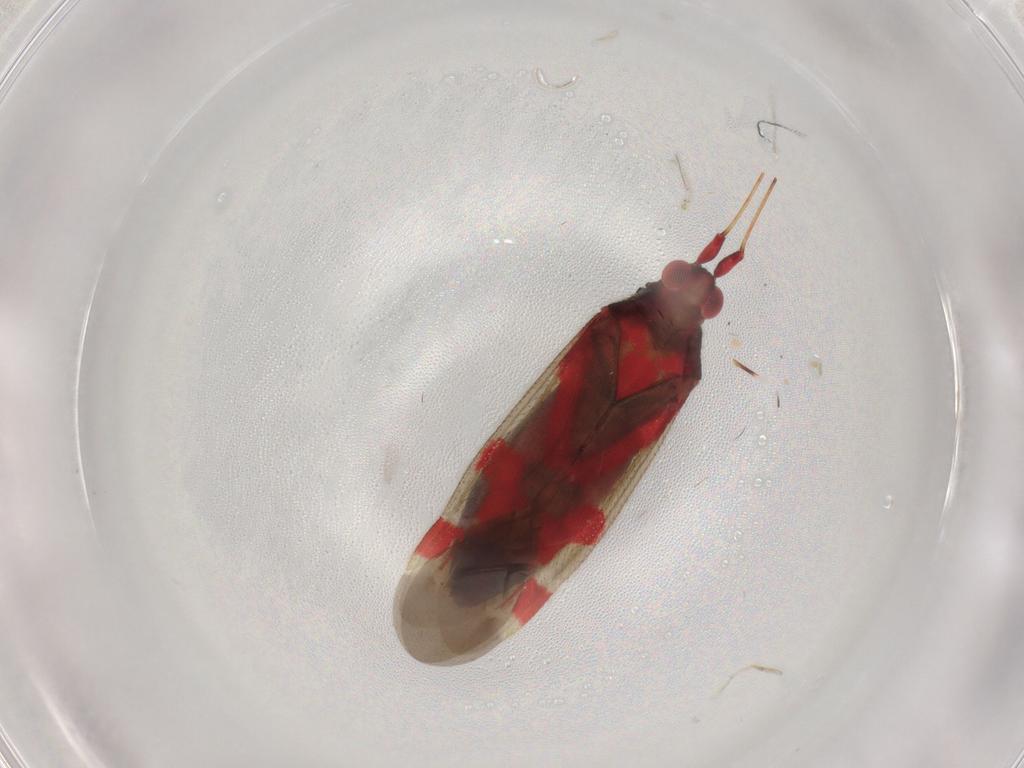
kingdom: Animalia
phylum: Arthropoda
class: Insecta
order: Hemiptera
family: Miridae
